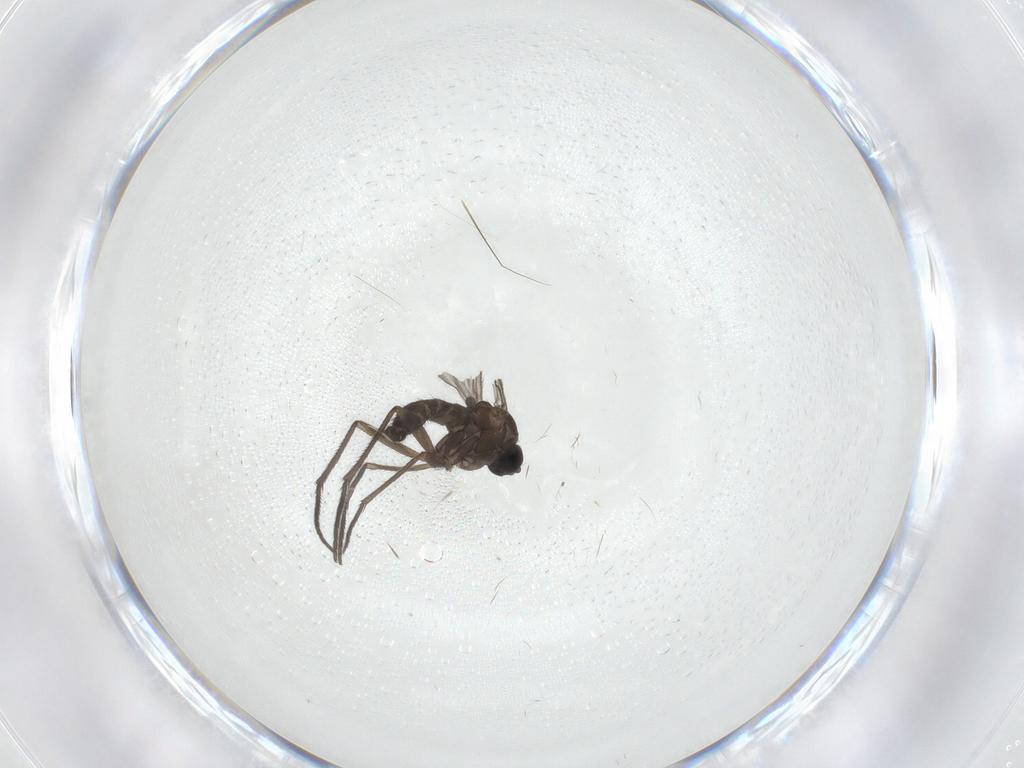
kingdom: Animalia
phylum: Arthropoda
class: Insecta
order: Diptera
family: Sciaridae
